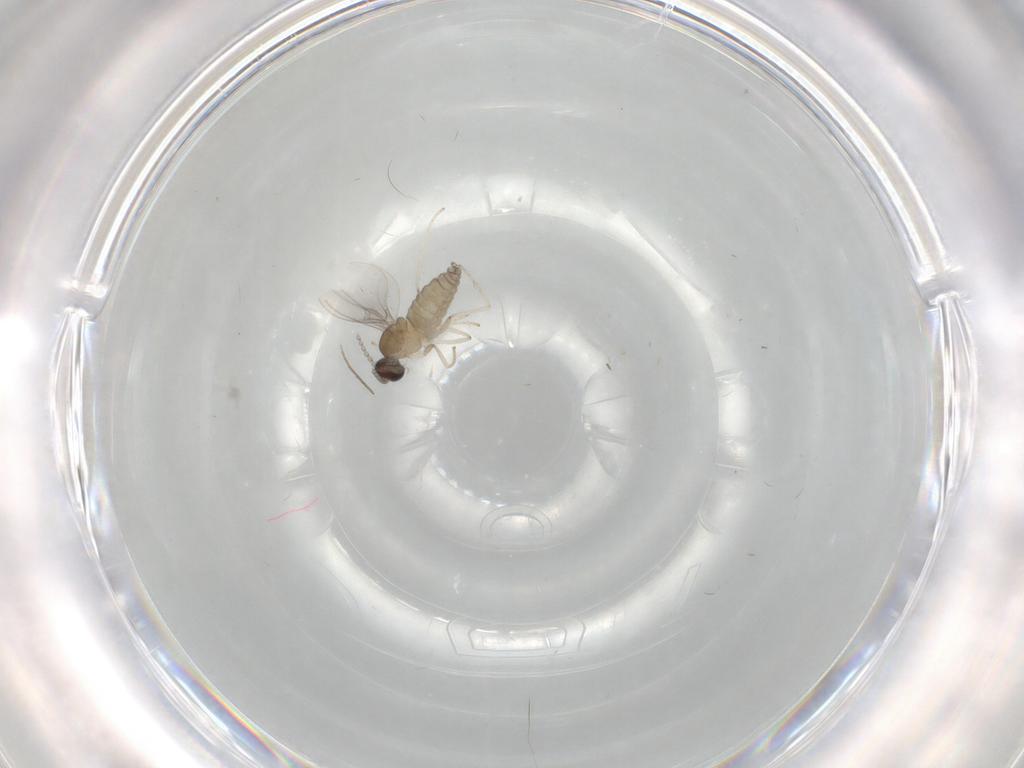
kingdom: Animalia
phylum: Arthropoda
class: Insecta
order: Diptera
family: Cecidomyiidae
